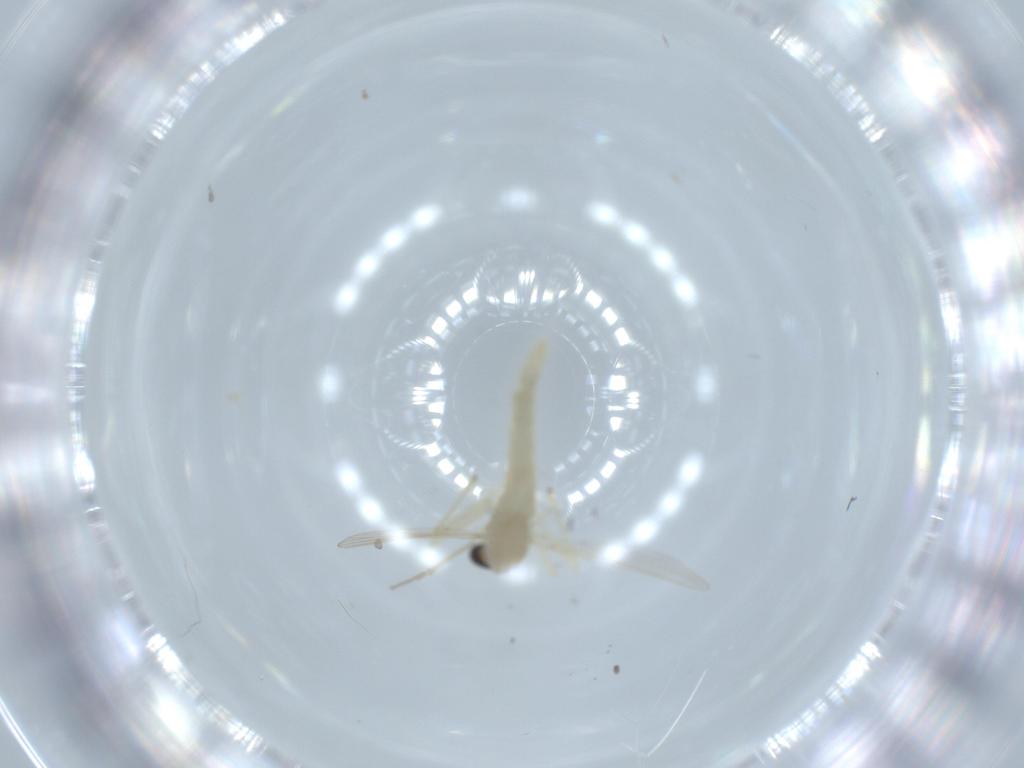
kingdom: Animalia
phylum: Arthropoda
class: Insecta
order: Diptera
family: Chironomidae
